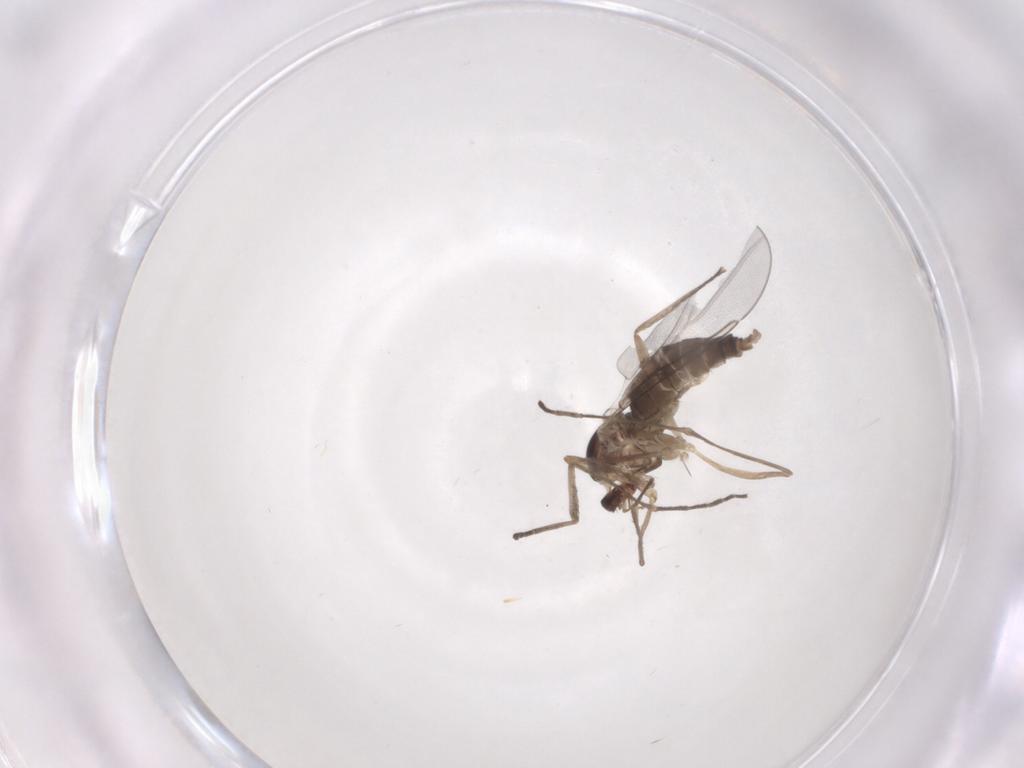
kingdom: Animalia
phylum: Arthropoda
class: Insecta
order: Diptera
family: Cecidomyiidae
